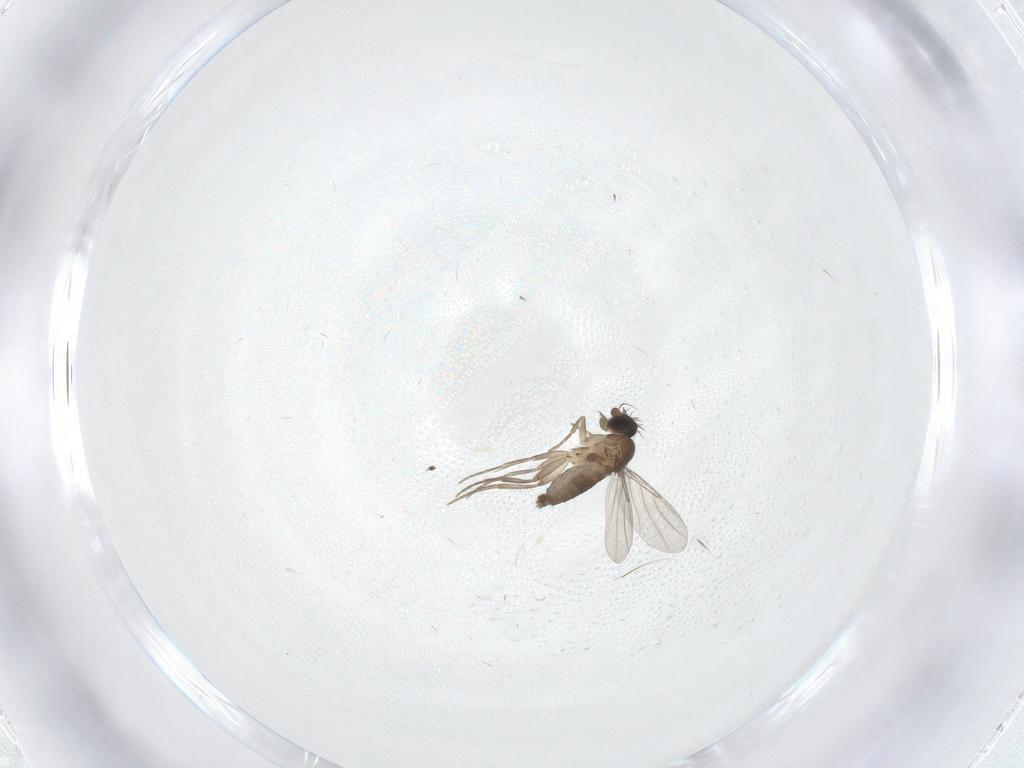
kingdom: Animalia
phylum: Arthropoda
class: Insecta
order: Diptera
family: Phoridae
